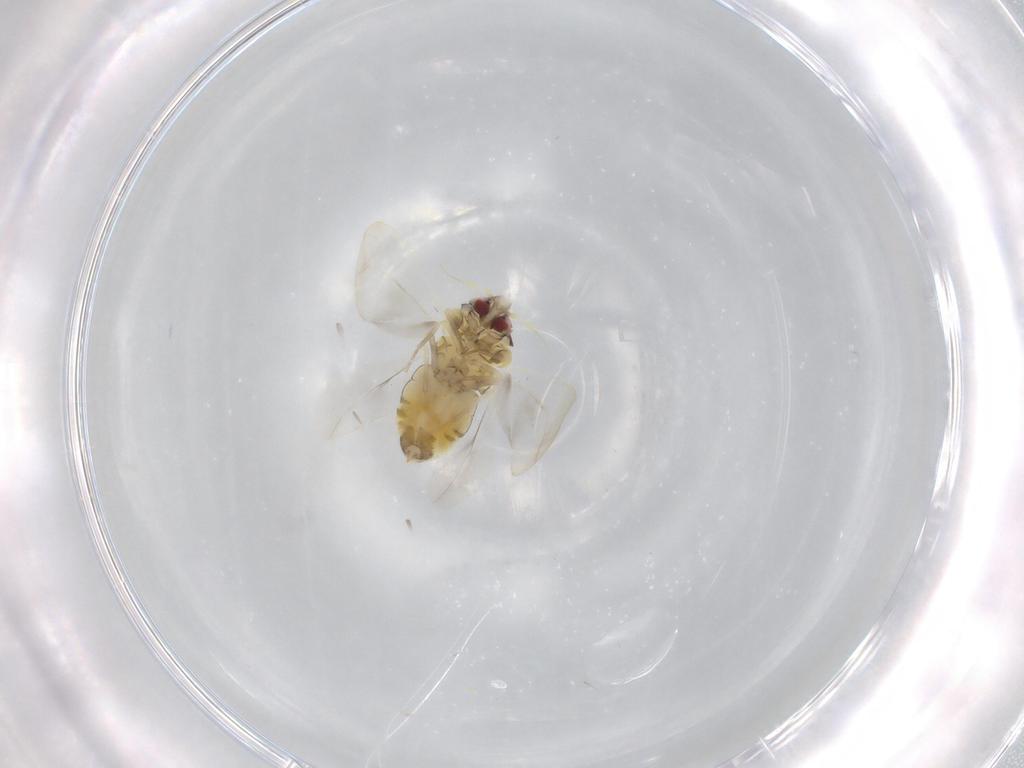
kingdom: Animalia
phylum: Arthropoda
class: Insecta
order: Hemiptera
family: Aleyrodidae
